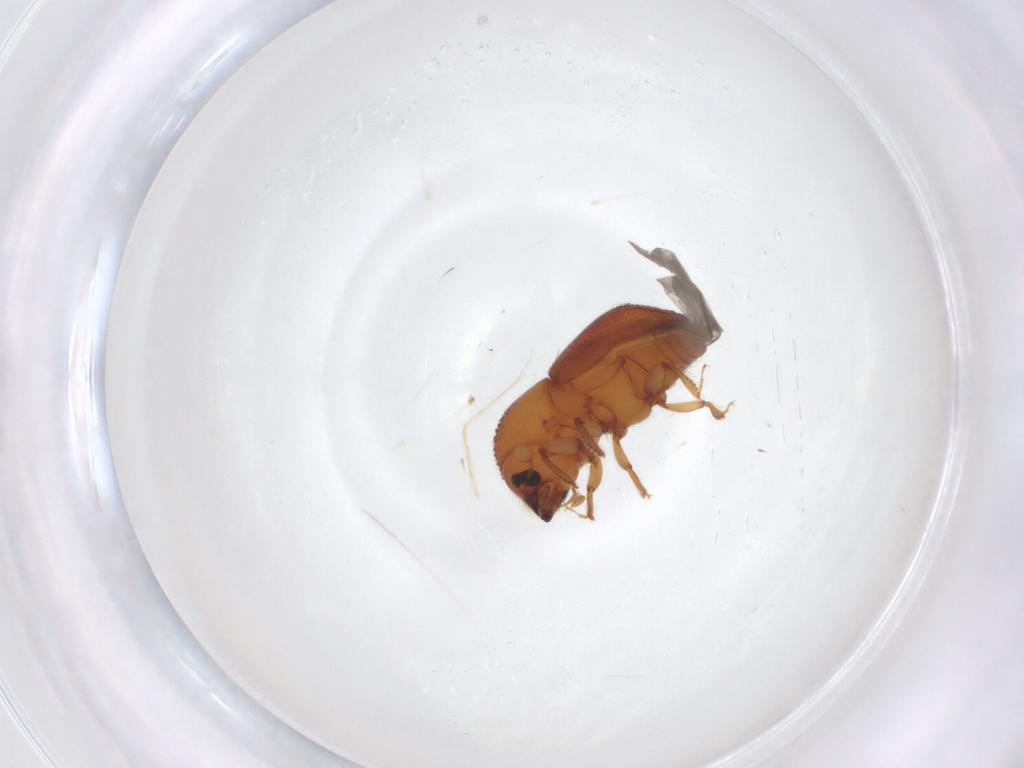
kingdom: Animalia
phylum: Arthropoda
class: Insecta
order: Coleoptera
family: Curculionidae
